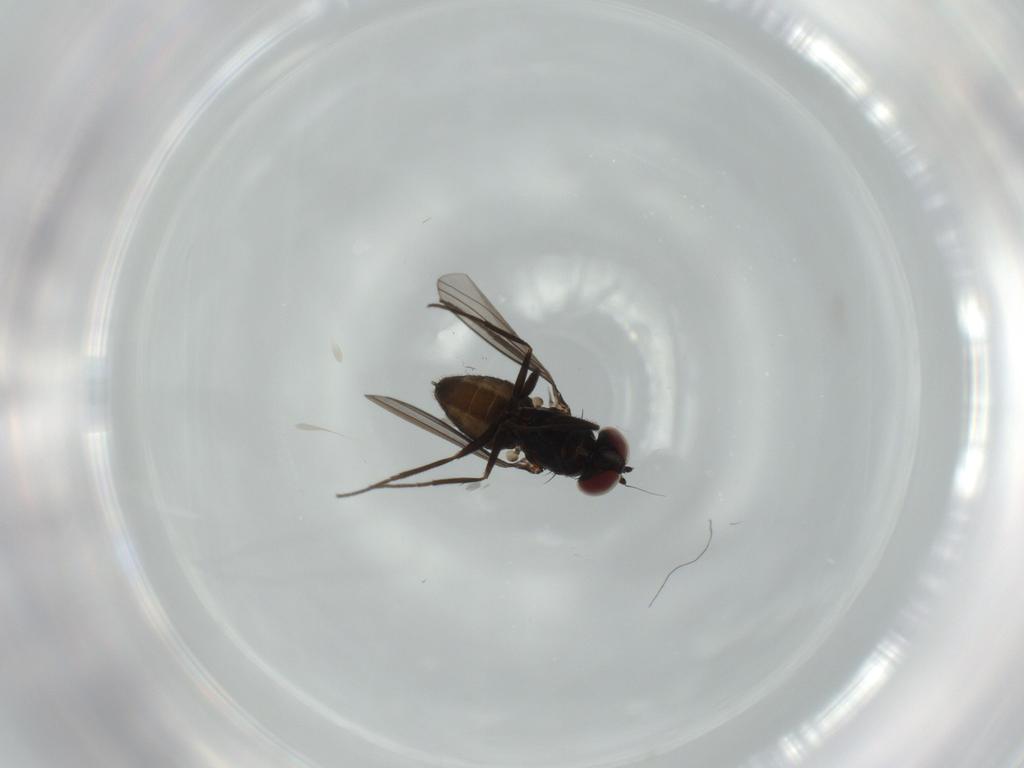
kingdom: Animalia
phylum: Arthropoda
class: Insecta
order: Diptera
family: Dolichopodidae
